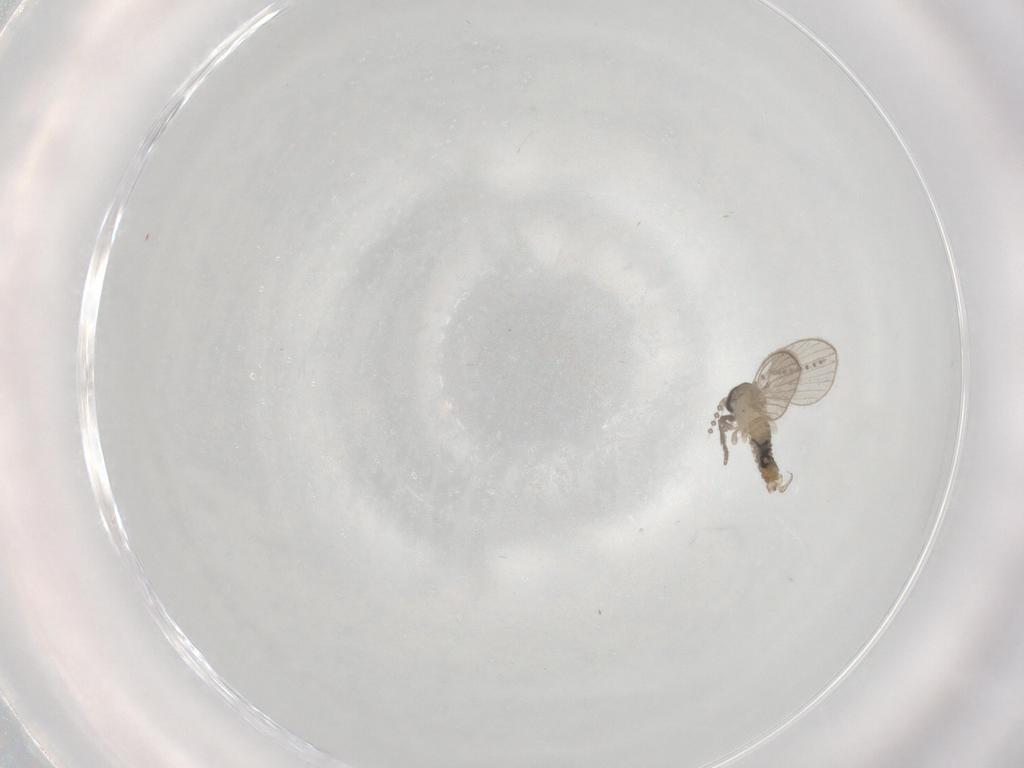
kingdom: Animalia
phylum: Arthropoda
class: Insecta
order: Diptera
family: Psychodidae
